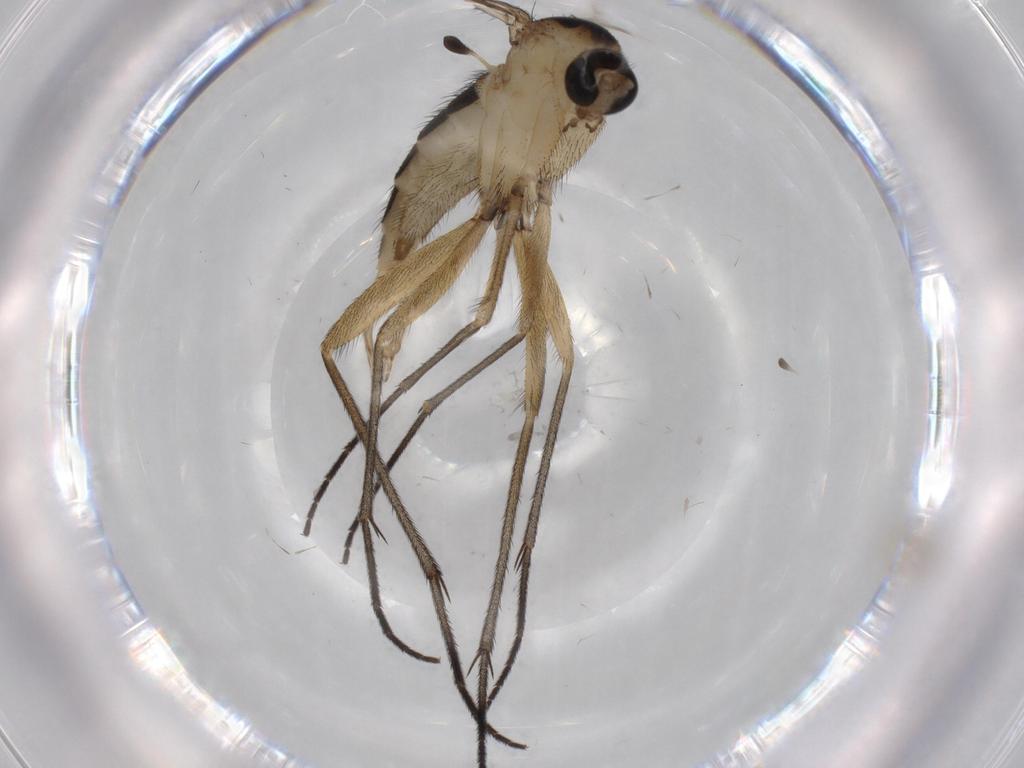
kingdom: Animalia
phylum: Arthropoda
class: Insecta
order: Diptera
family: Sciaridae
